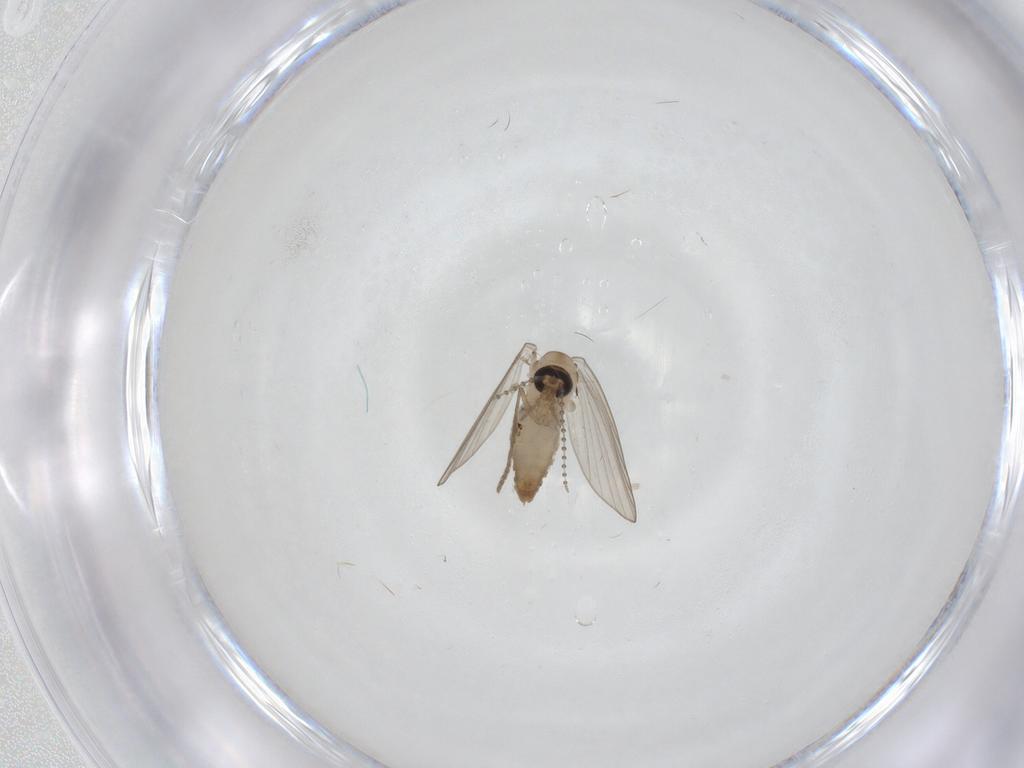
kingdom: Animalia
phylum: Arthropoda
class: Insecta
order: Diptera
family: Psychodidae
